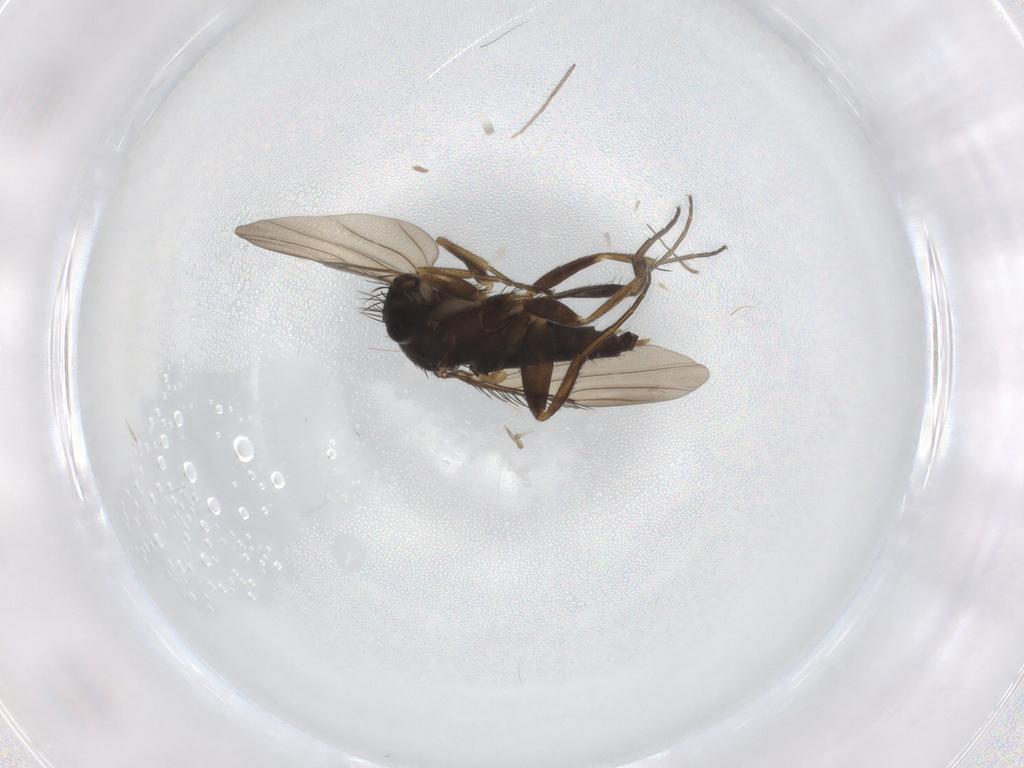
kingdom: Animalia
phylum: Arthropoda
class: Insecta
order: Diptera
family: Phoridae
